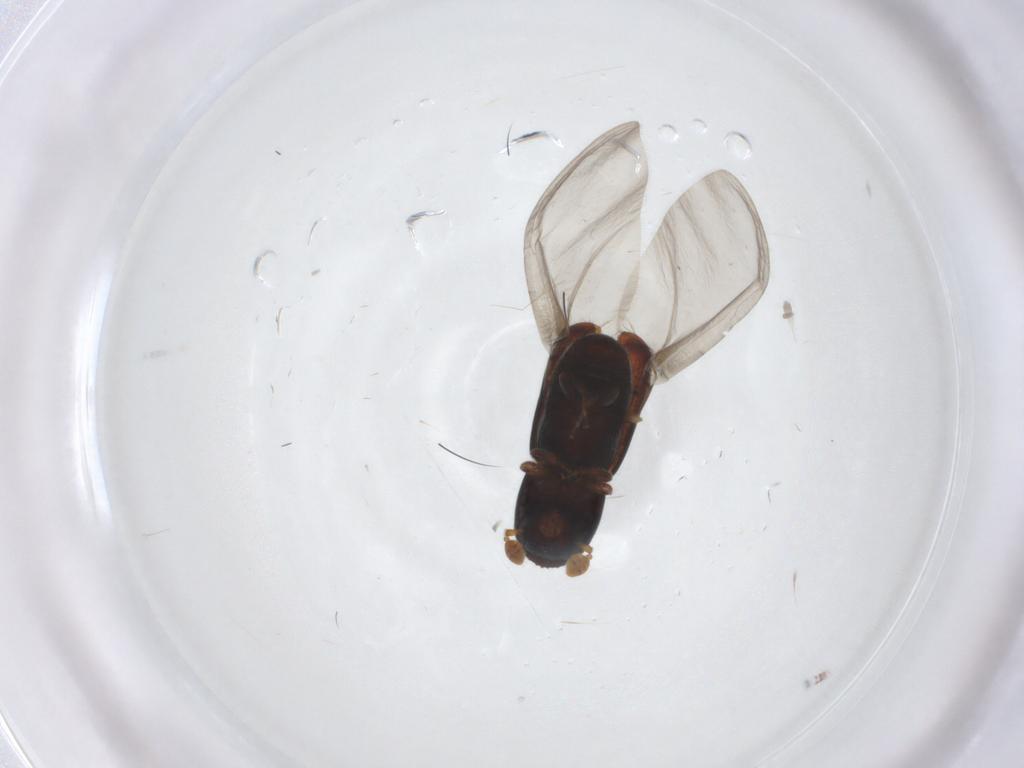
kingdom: Animalia
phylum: Arthropoda
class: Insecta
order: Coleoptera
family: Curculionidae
